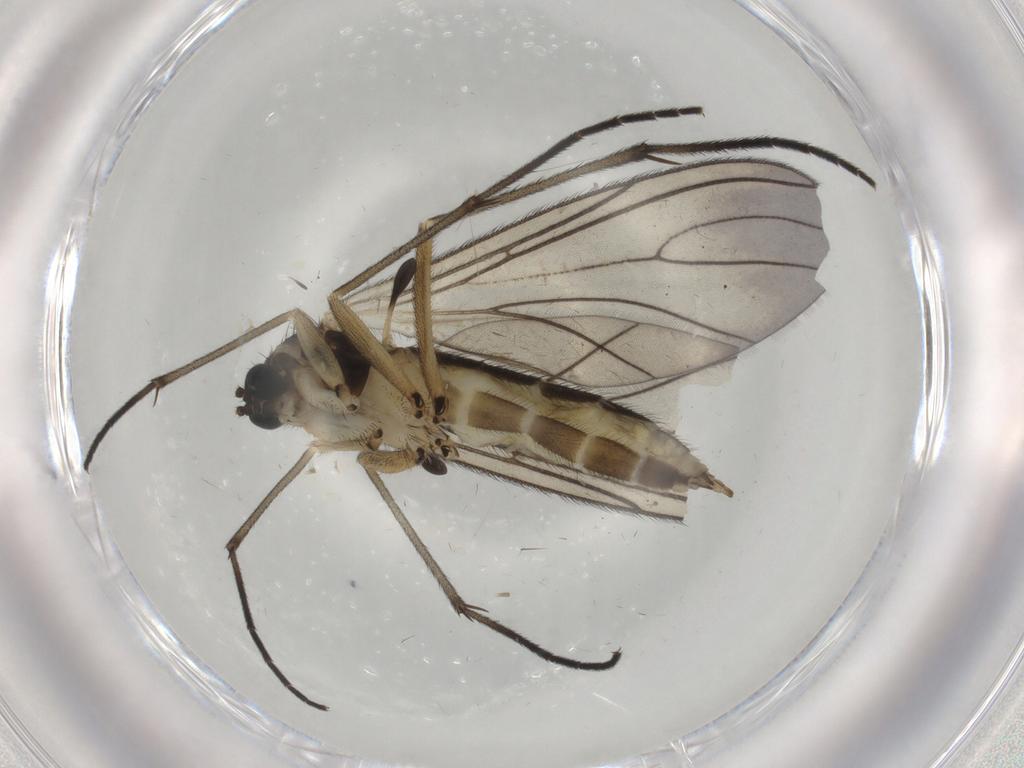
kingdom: Animalia
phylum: Arthropoda
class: Insecta
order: Diptera
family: Sciaridae
